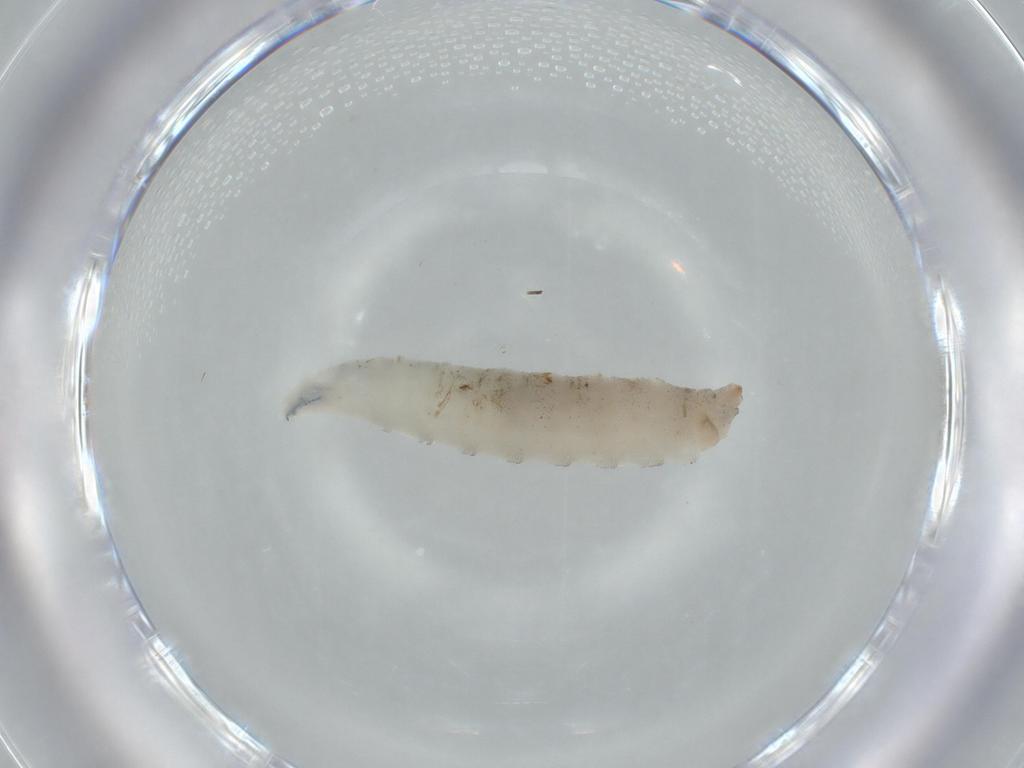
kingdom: Animalia
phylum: Arthropoda
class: Insecta
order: Diptera
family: Sciaridae
